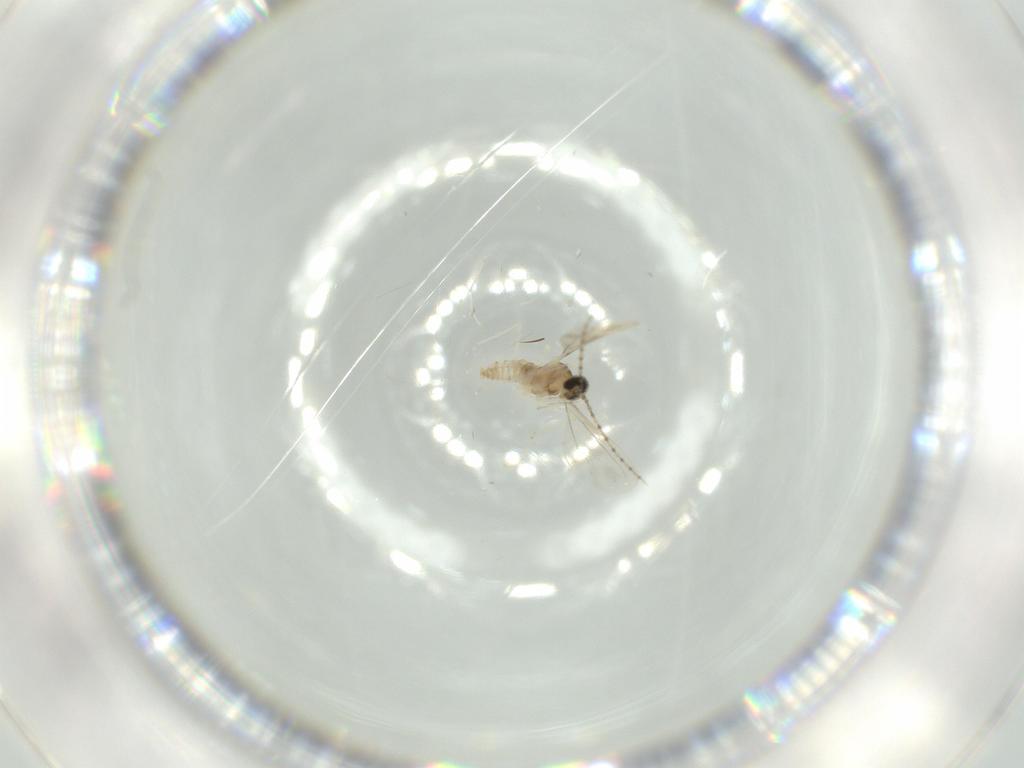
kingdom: Animalia
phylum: Arthropoda
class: Insecta
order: Diptera
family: Cecidomyiidae
